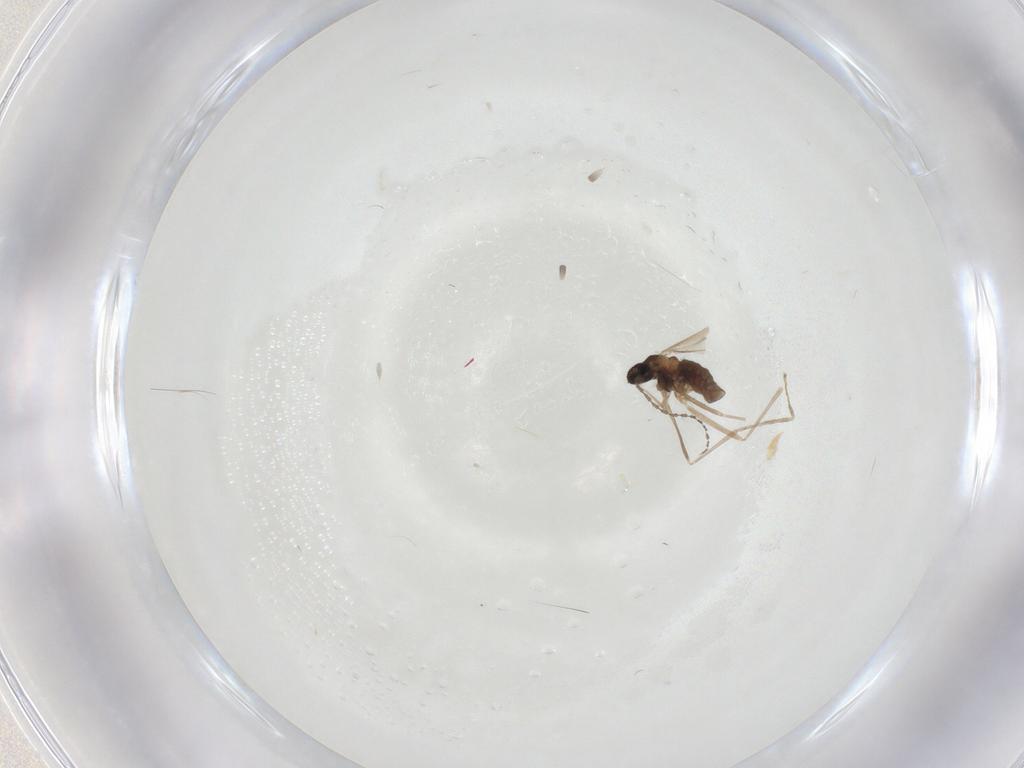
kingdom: Animalia
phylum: Arthropoda
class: Insecta
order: Diptera
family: Cecidomyiidae
